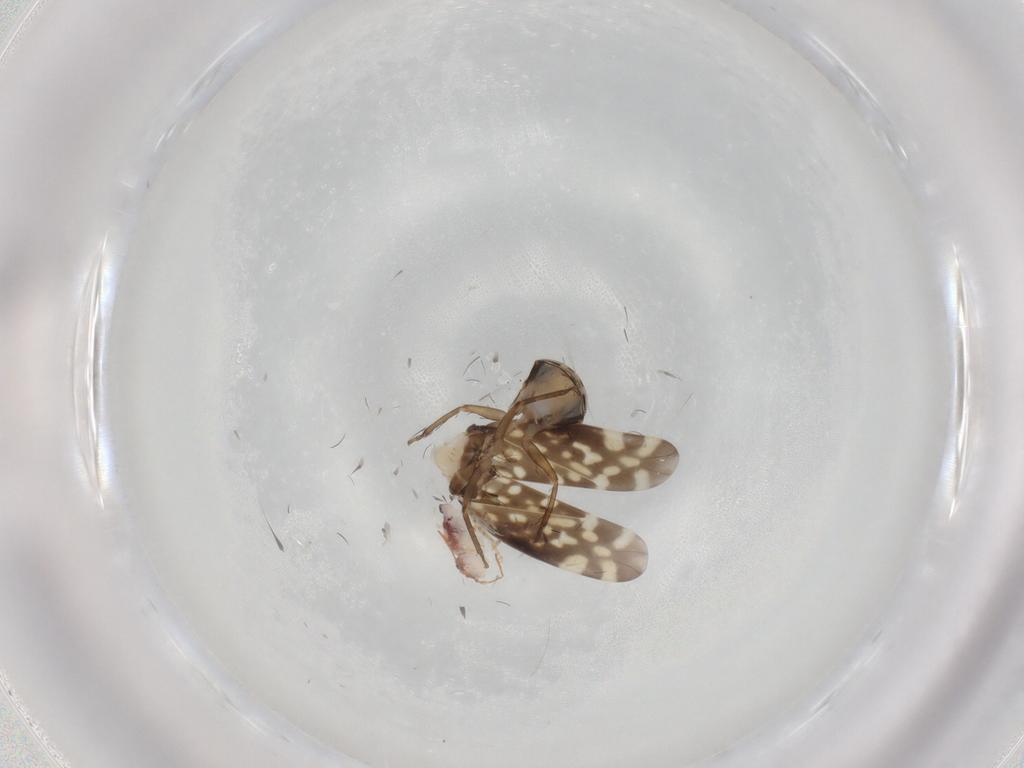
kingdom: Animalia
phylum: Arthropoda
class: Insecta
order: Hemiptera
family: Cicadellidae
